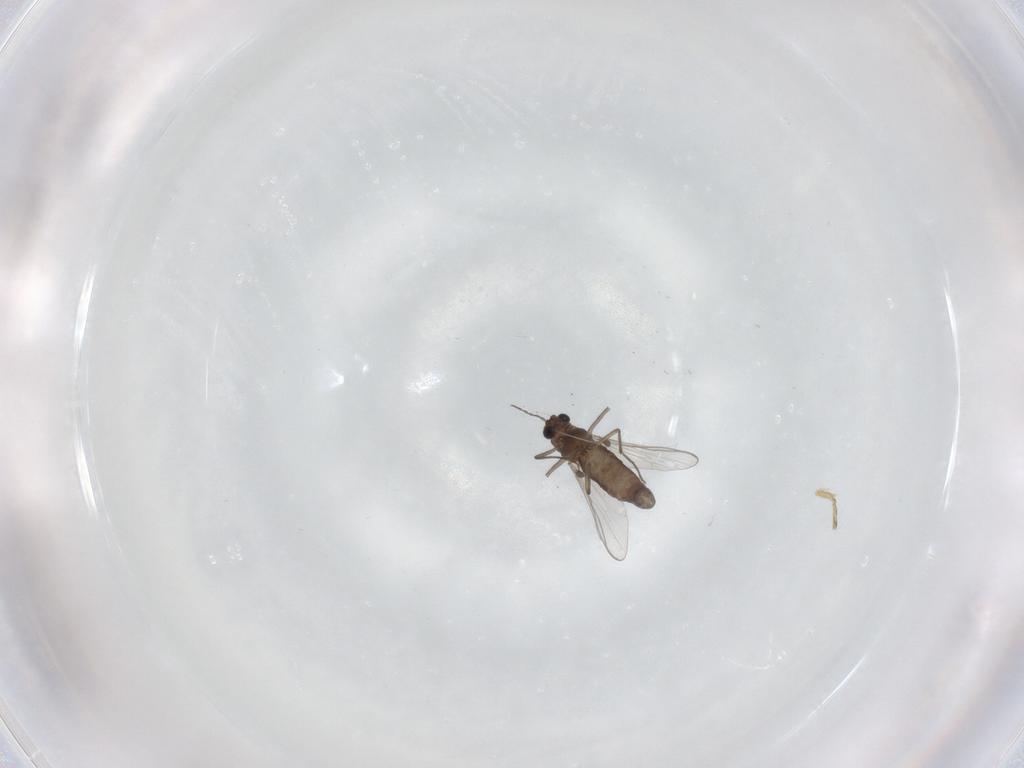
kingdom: Animalia
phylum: Arthropoda
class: Insecta
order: Diptera
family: Chironomidae
